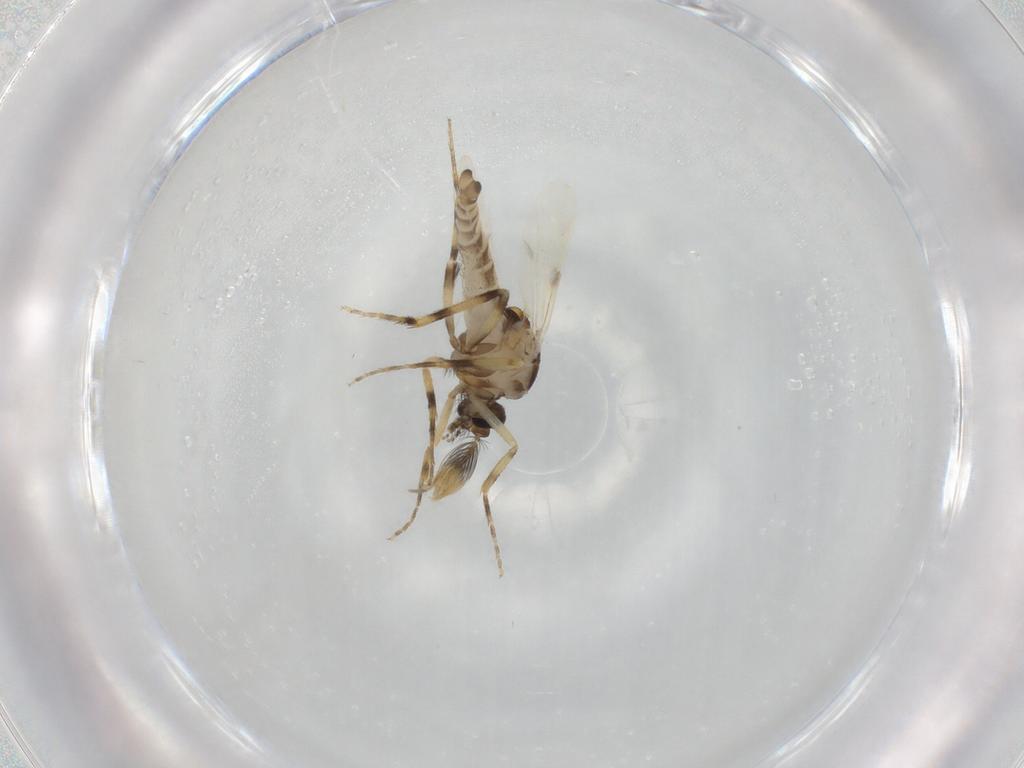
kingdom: Animalia
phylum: Arthropoda
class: Insecta
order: Diptera
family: Ceratopogonidae
